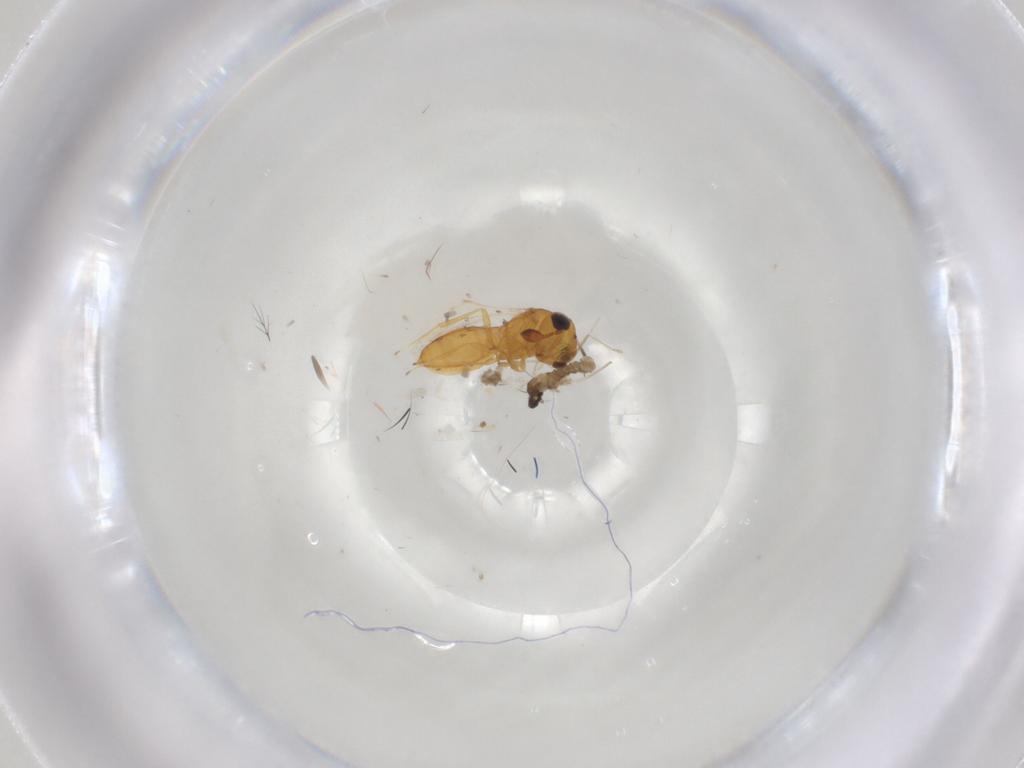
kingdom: Animalia
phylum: Arthropoda
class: Insecta
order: Hymenoptera
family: Scelionidae
